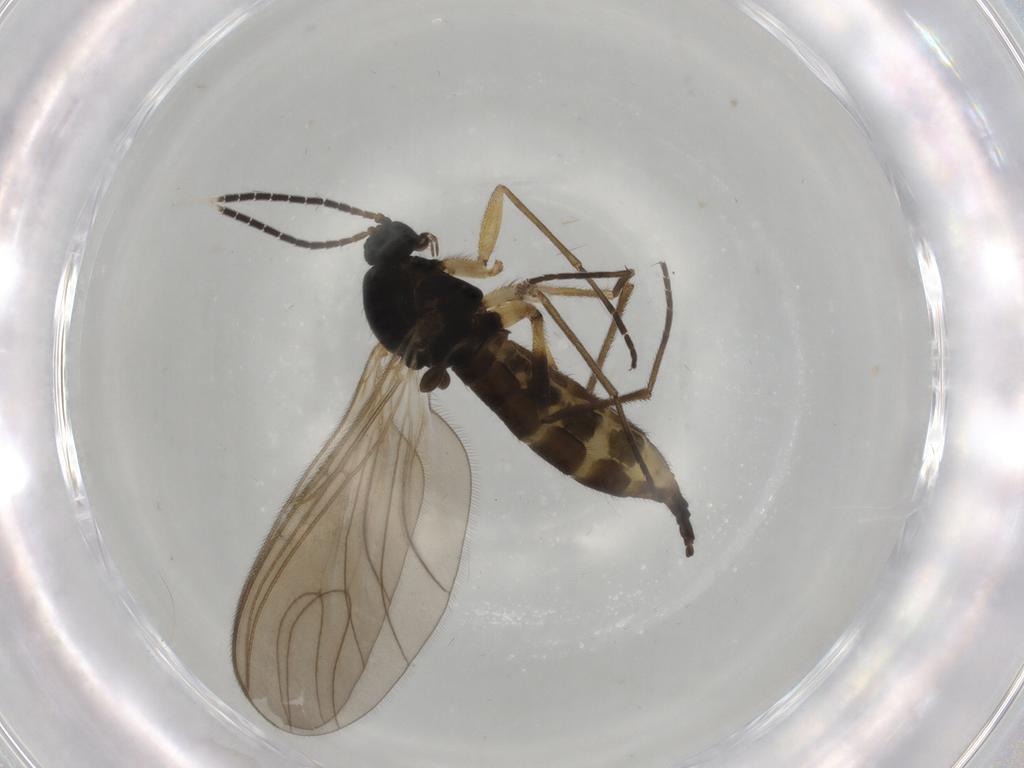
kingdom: Animalia
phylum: Arthropoda
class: Insecta
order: Diptera
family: Sciaridae
